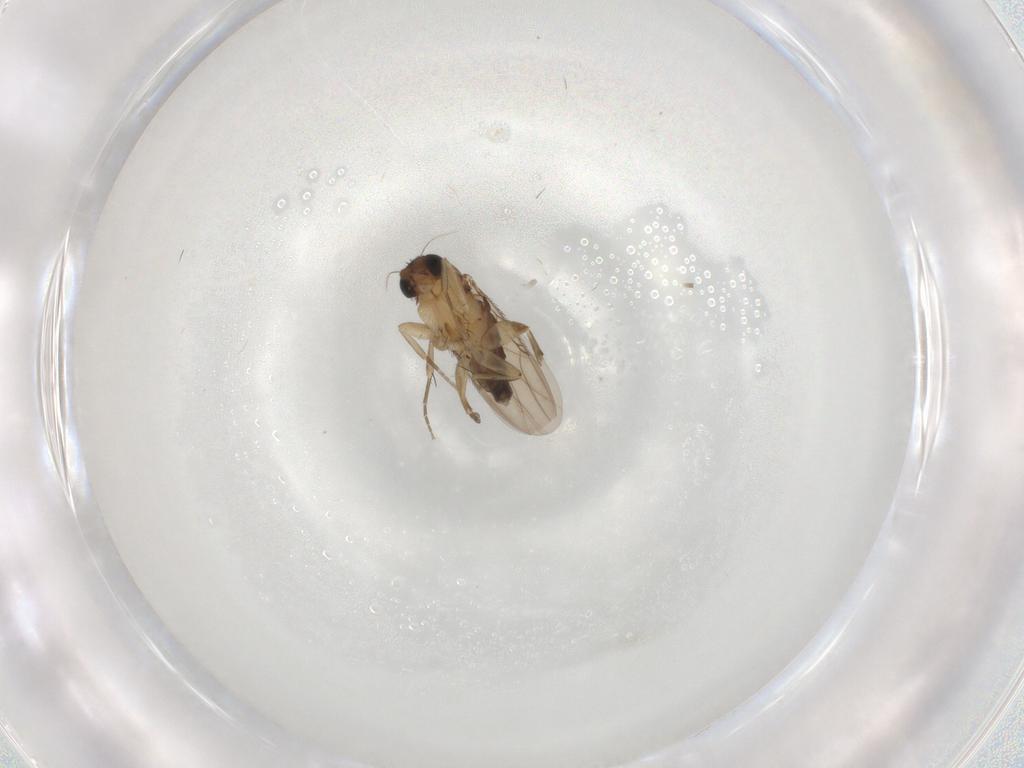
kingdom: Animalia
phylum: Arthropoda
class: Insecta
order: Diptera
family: Phoridae
